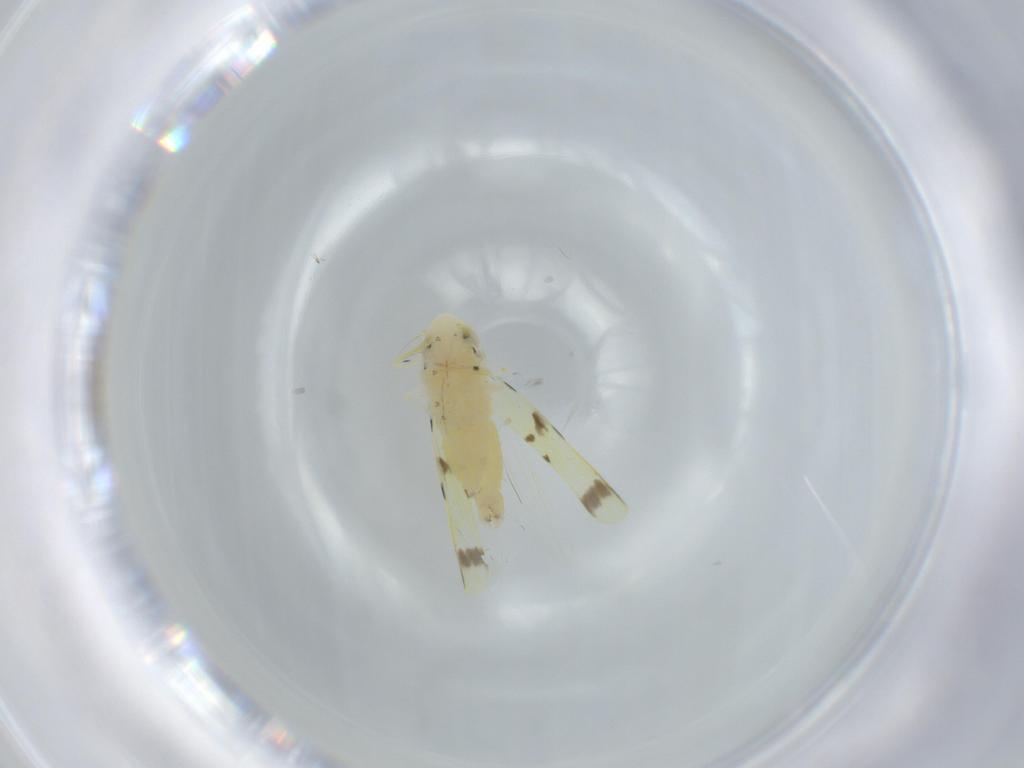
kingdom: Animalia
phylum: Arthropoda
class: Insecta
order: Hemiptera
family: Cicadellidae
